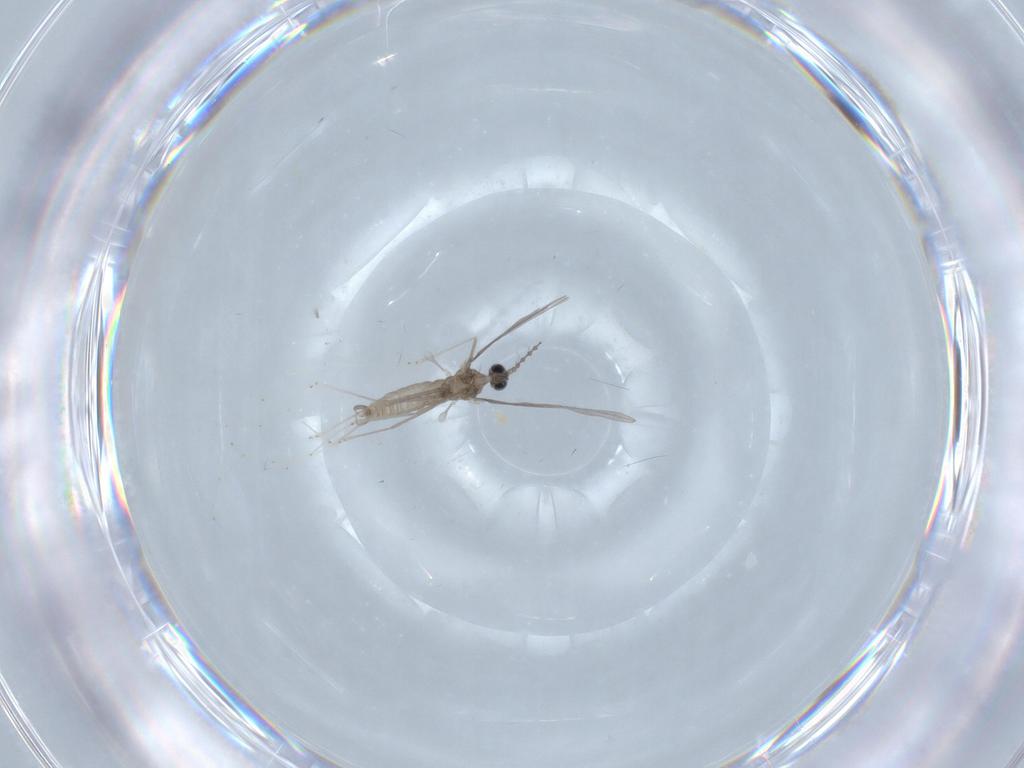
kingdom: Animalia
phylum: Arthropoda
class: Insecta
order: Diptera
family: Cecidomyiidae
